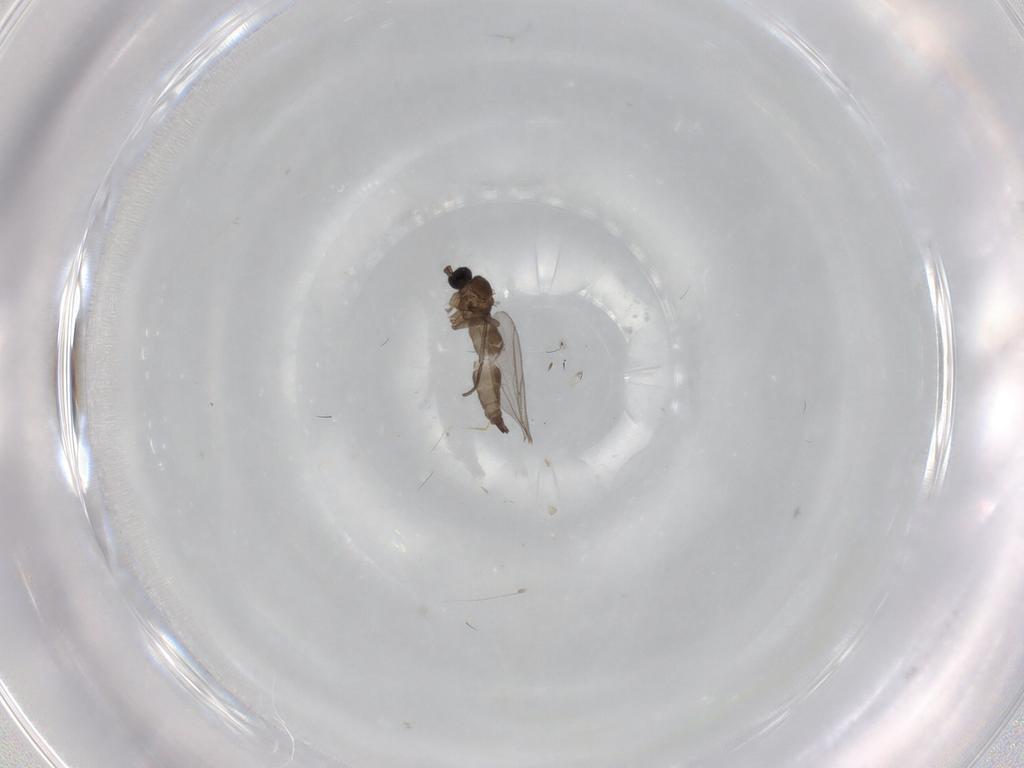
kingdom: Animalia
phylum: Arthropoda
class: Insecta
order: Diptera
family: Sciaridae
